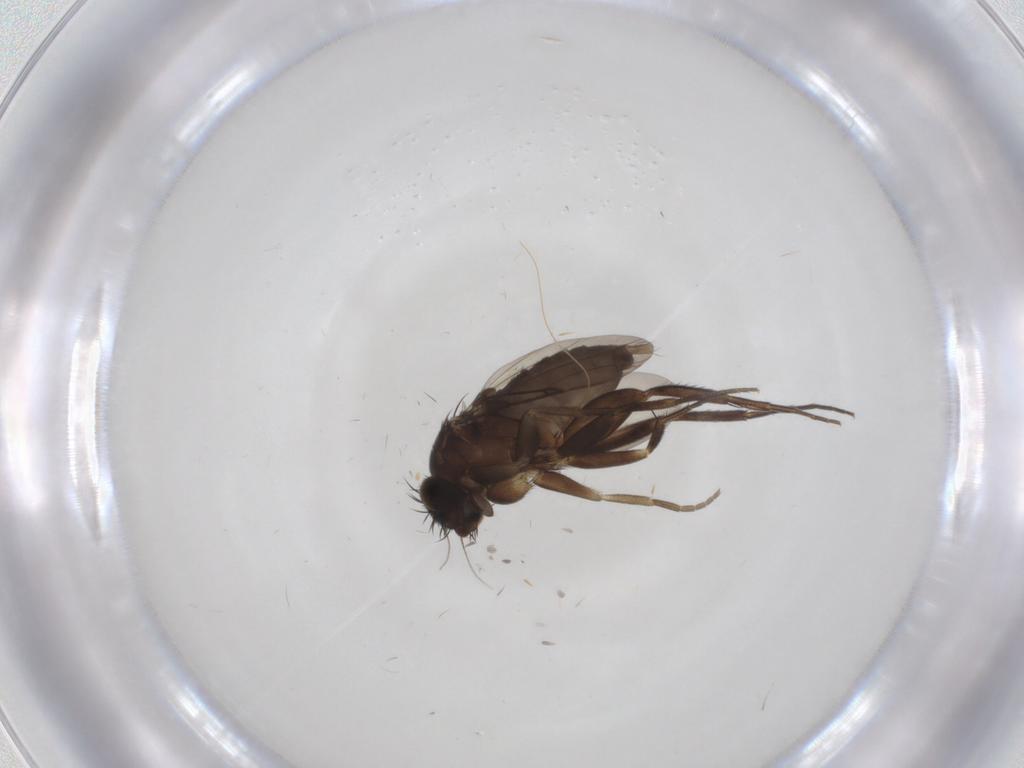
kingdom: Animalia
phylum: Arthropoda
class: Insecta
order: Diptera
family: Phoridae
